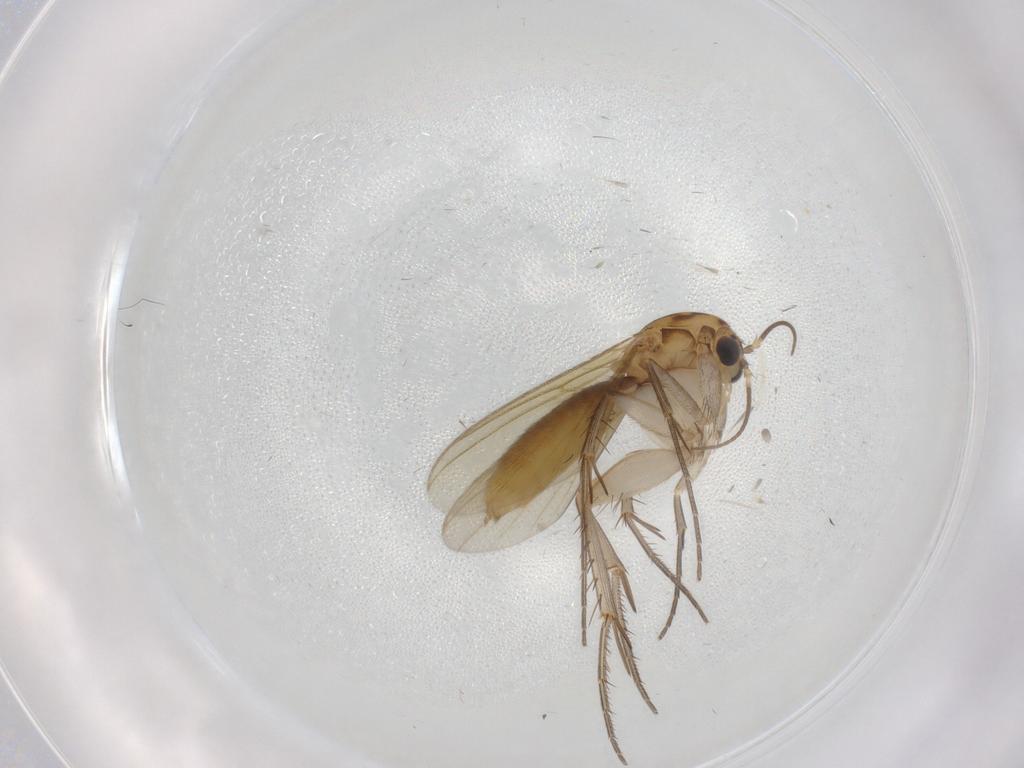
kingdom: Animalia
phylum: Arthropoda
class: Insecta
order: Diptera
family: Mycetophilidae
